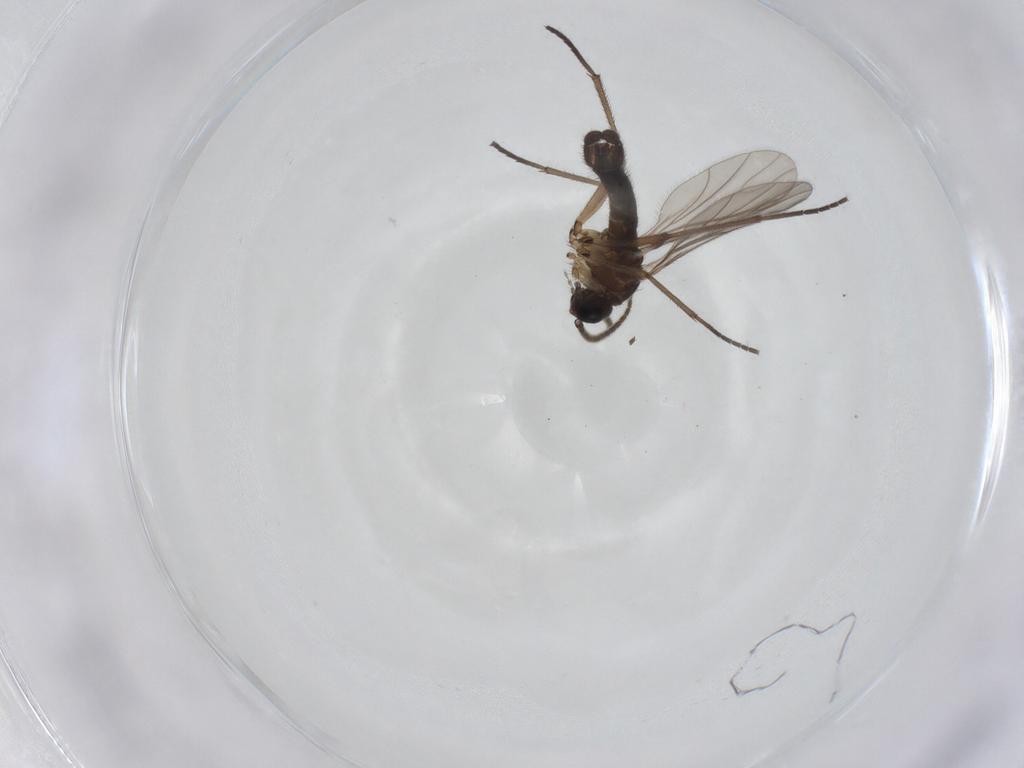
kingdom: Animalia
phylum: Arthropoda
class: Insecta
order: Diptera
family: Sciaridae
